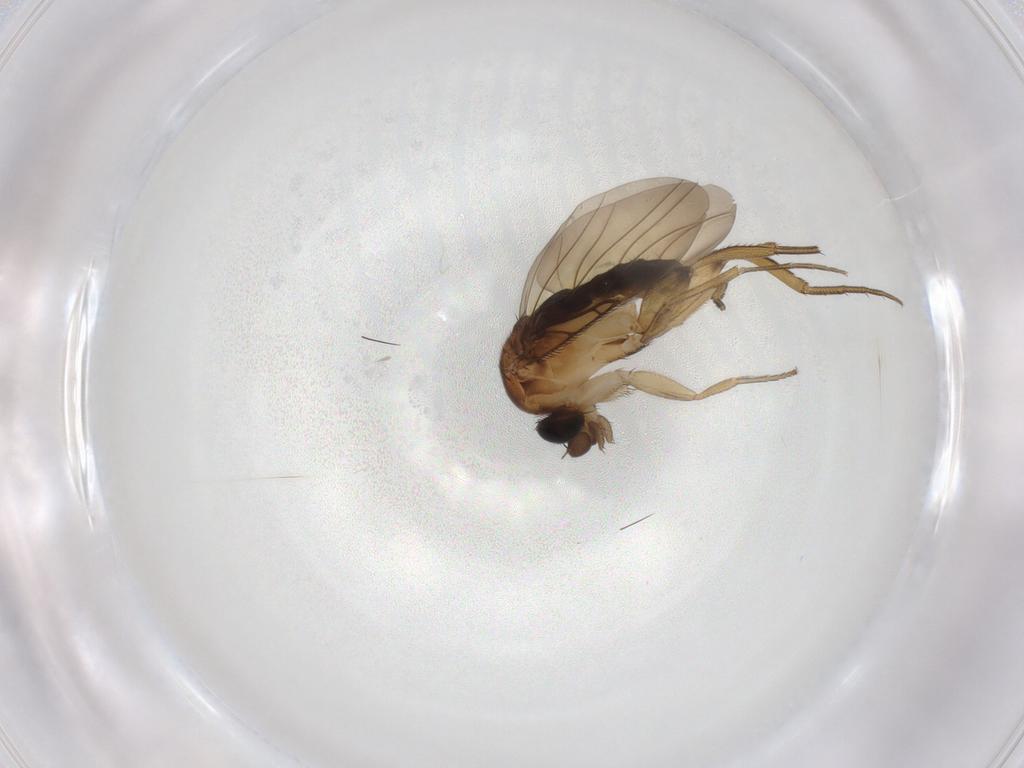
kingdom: Animalia
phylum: Arthropoda
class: Insecta
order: Diptera
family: Phoridae
